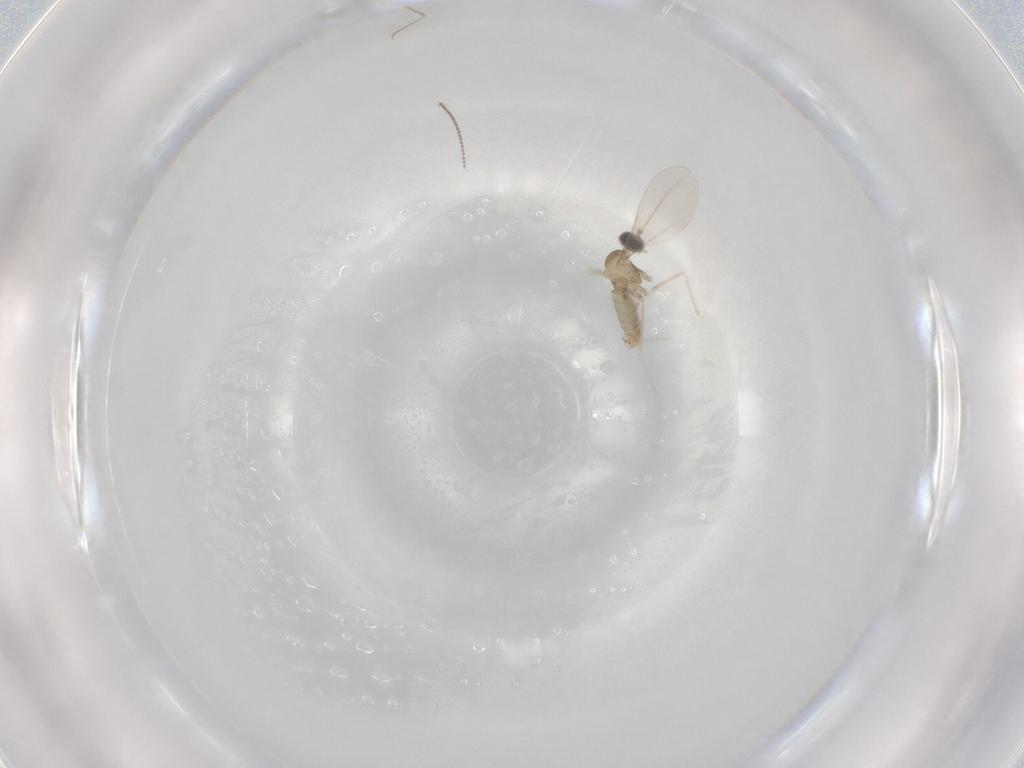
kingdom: Animalia
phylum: Arthropoda
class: Insecta
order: Diptera
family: Cecidomyiidae
